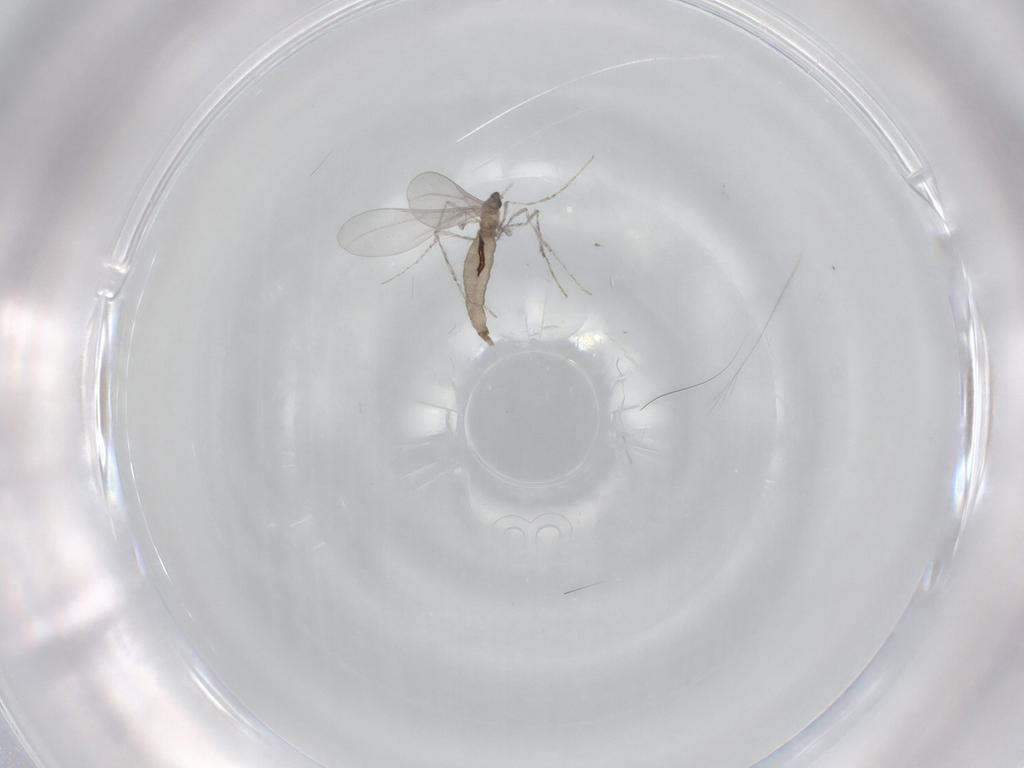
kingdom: Animalia
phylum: Arthropoda
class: Insecta
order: Diptera
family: Cecidomyiidae
